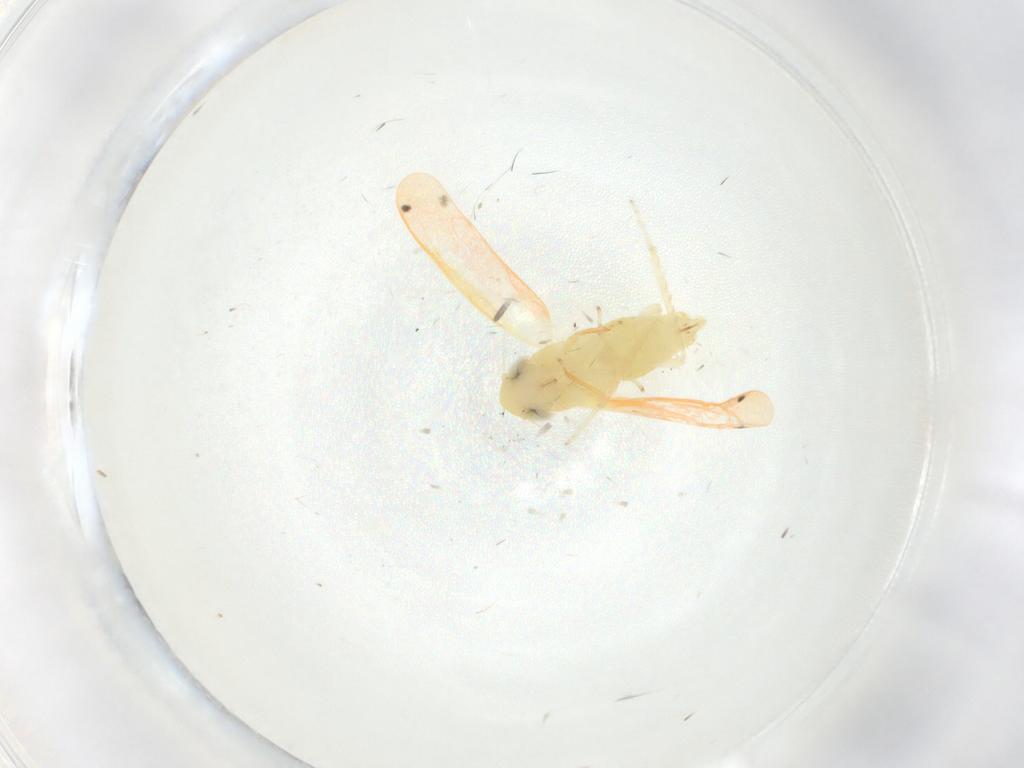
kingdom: Animalia
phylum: Arthropoda
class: Insecta
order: Hemiptera
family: Cicadellidae
